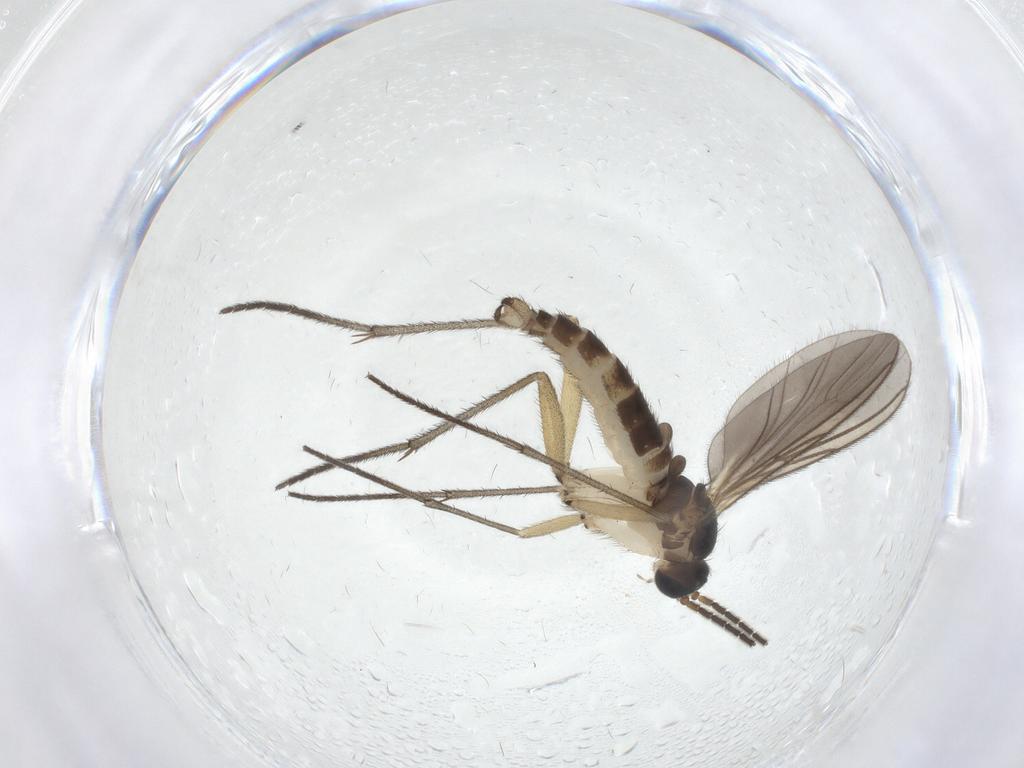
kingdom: Animalia
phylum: Arthropoda
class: Insecta
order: Diptera
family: Sciaridae
